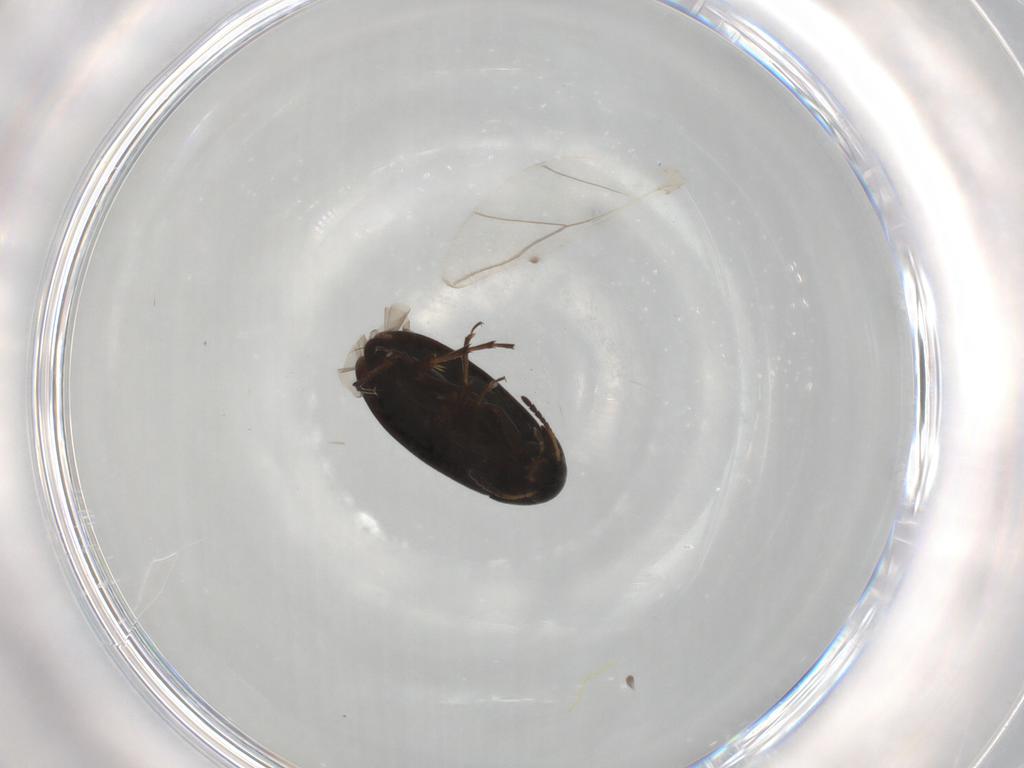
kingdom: Animalia
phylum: Arthropoda
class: Insecta
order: Coleoptera
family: Scraptiidae
